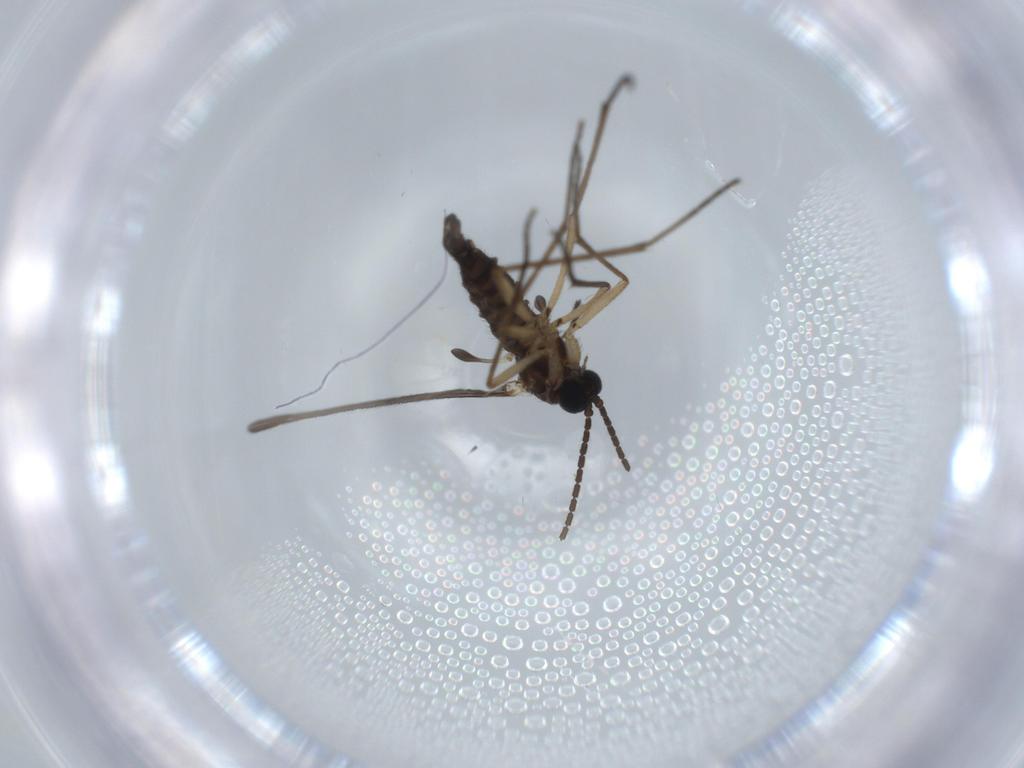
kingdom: Animalia
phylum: Arthropoda
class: Insecta
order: Diptera
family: Sciaridae
